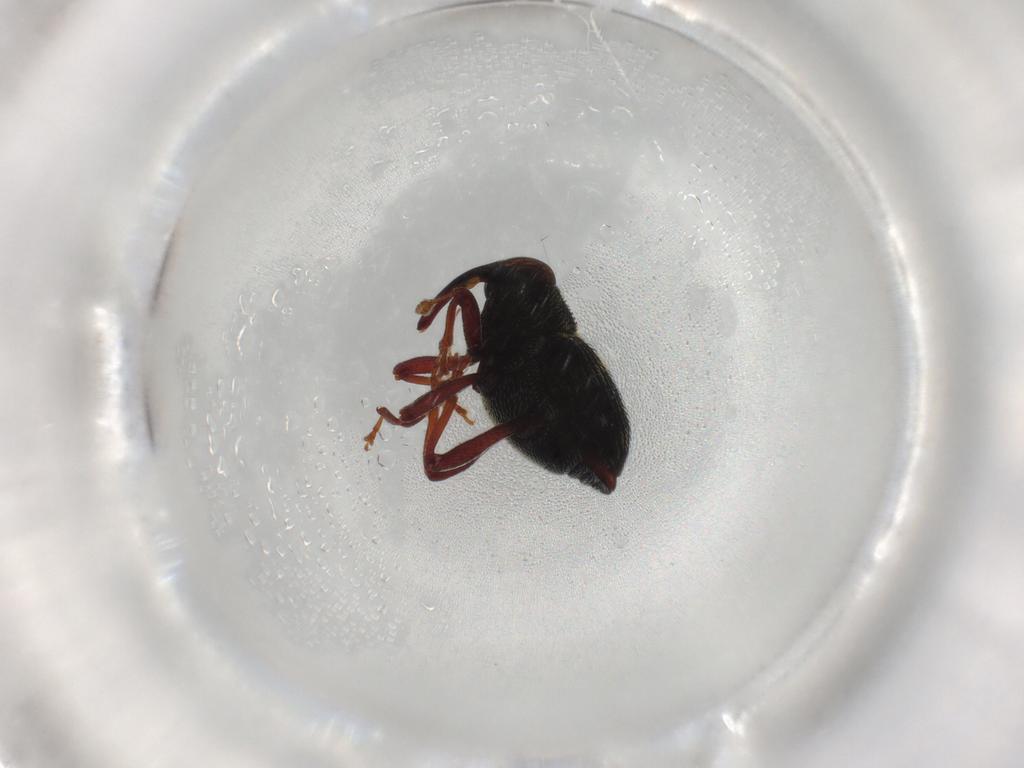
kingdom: Animalia
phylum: Arthropoda
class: Insecta
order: Coleoptera
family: Curculionidae
